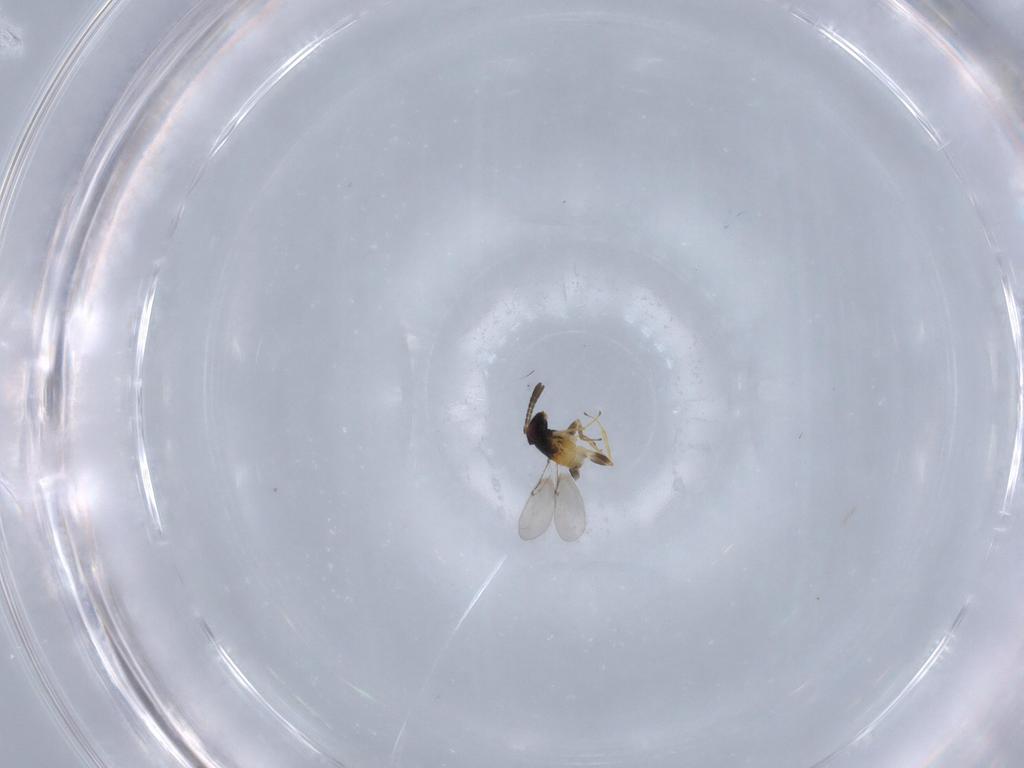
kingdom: Animalia
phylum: Arthropoda
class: Insecta
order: Hymenoptera
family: Encyrtidae
